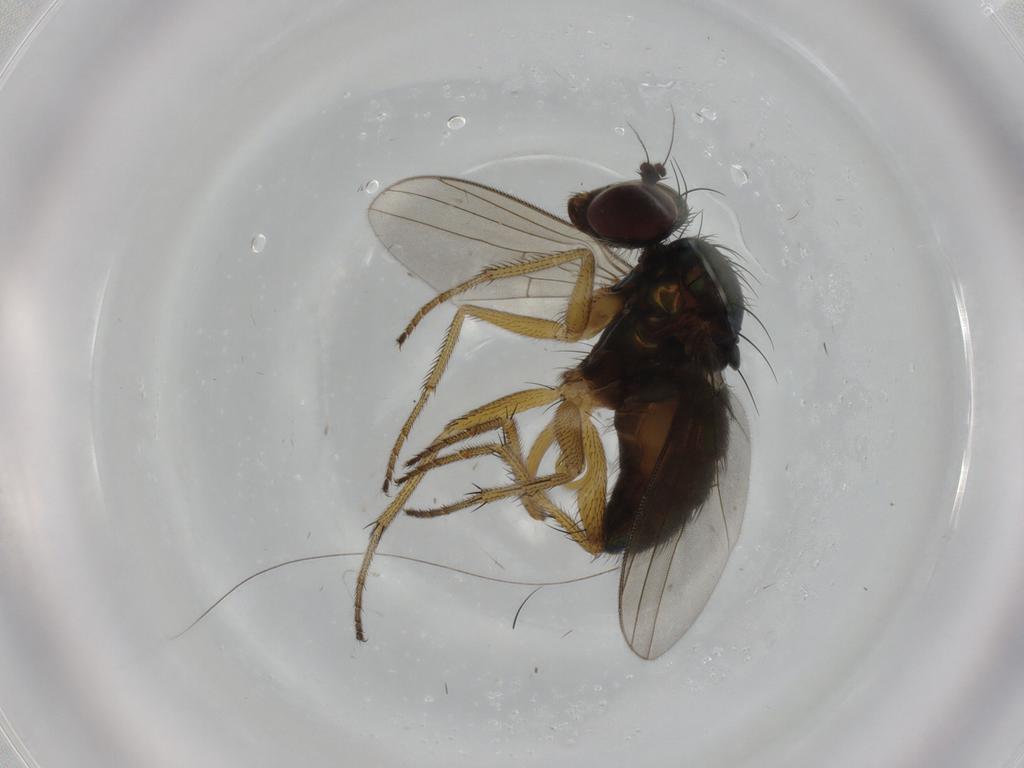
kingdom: Animalia
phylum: Arthropoda
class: Insecta
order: Diptera
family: Dolichopodidae
